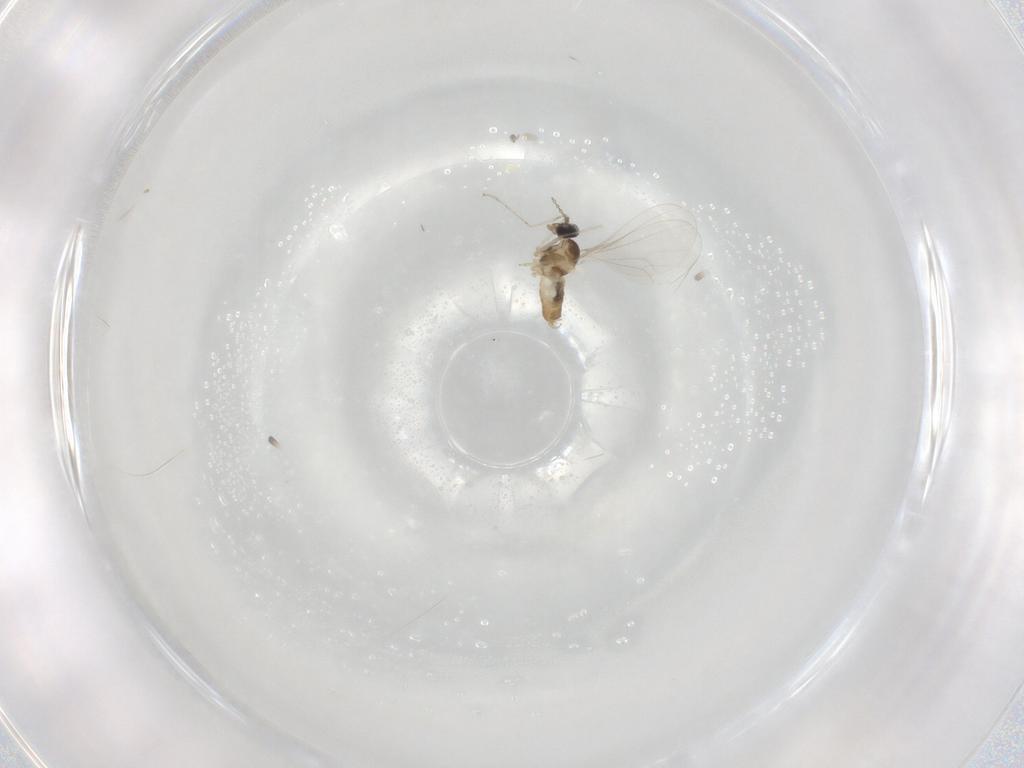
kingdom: Animalia
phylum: Arthropoda
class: Insecta
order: Diptera
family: Cecidomyiidae
